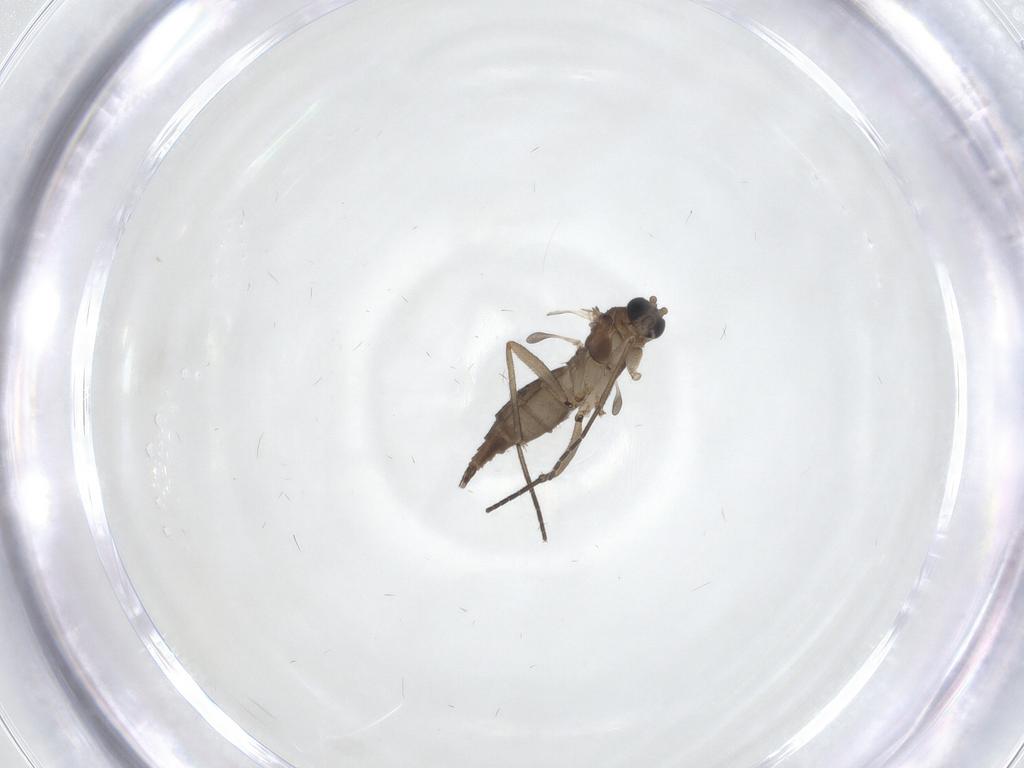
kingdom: Animalia
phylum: Arthropoda
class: Insecta
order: Diptera
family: Sciaridae
